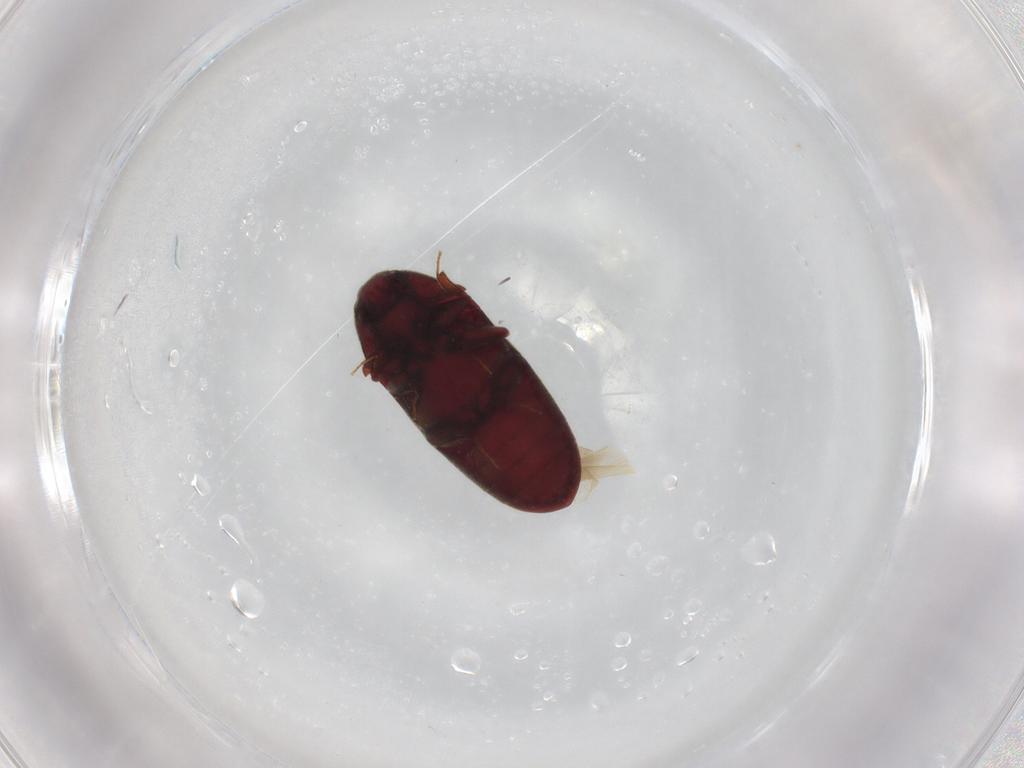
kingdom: Animalia
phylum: Arthropoda
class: Insecta
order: Coleoptera
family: Throscidae
